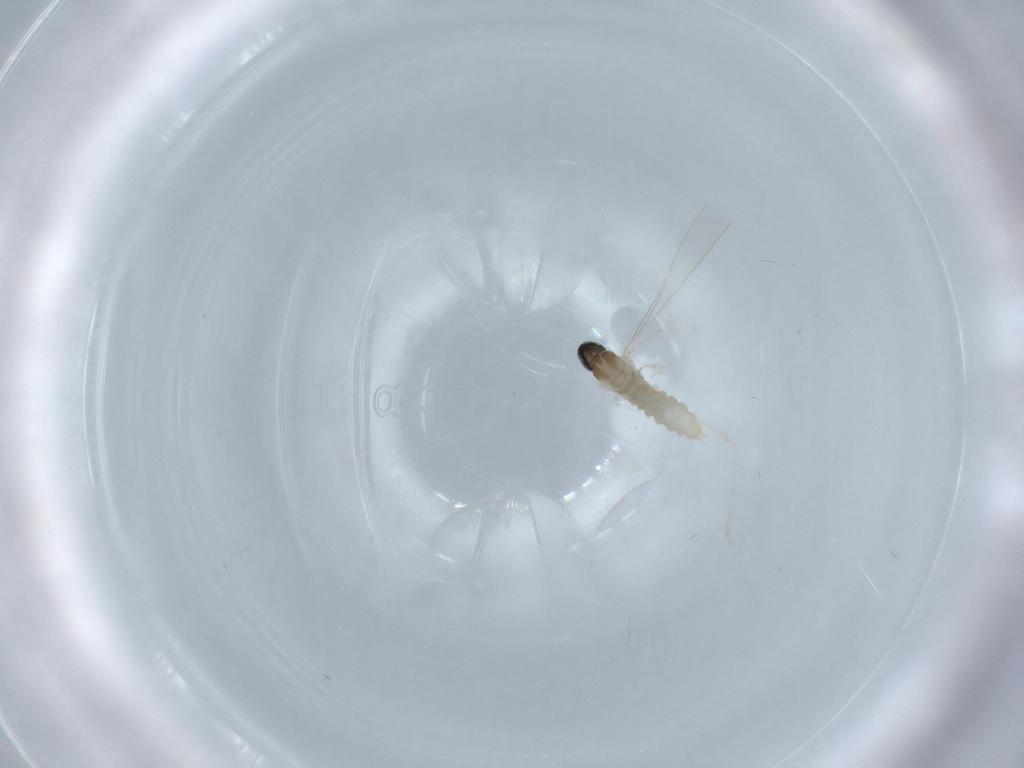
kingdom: Animalia
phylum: Arthropoda
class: Insecta
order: Diptera
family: Cecidomyiidae
